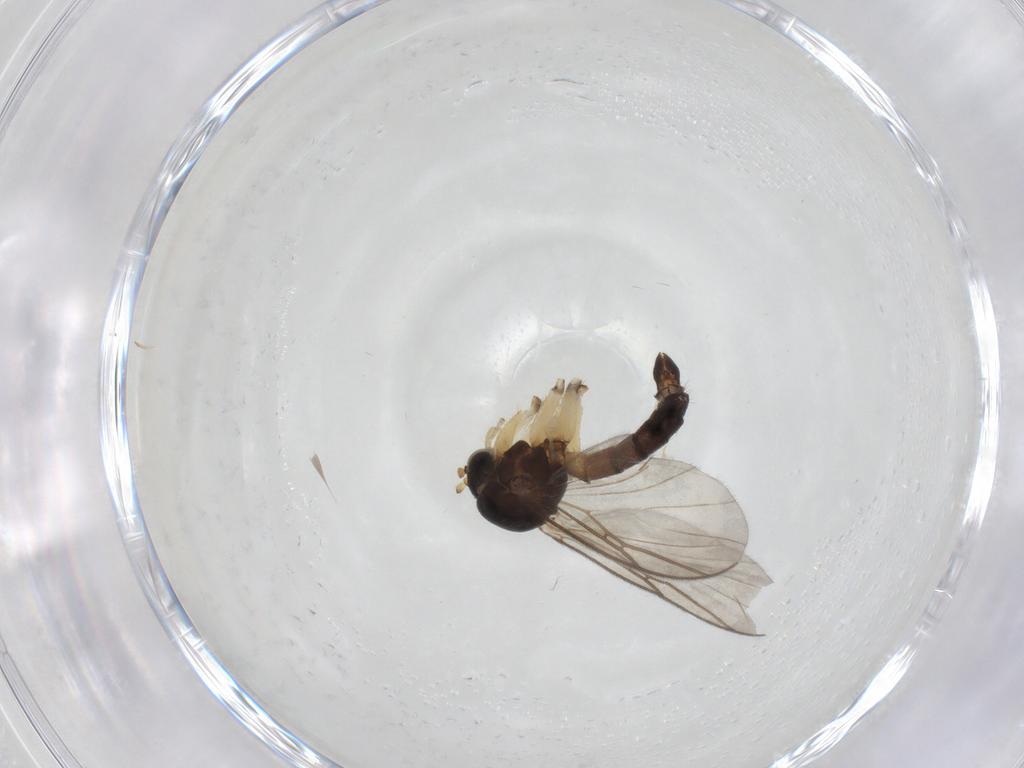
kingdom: Animalia
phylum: Arthropoda
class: Insecta
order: Diptera
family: Mycetophilidae
